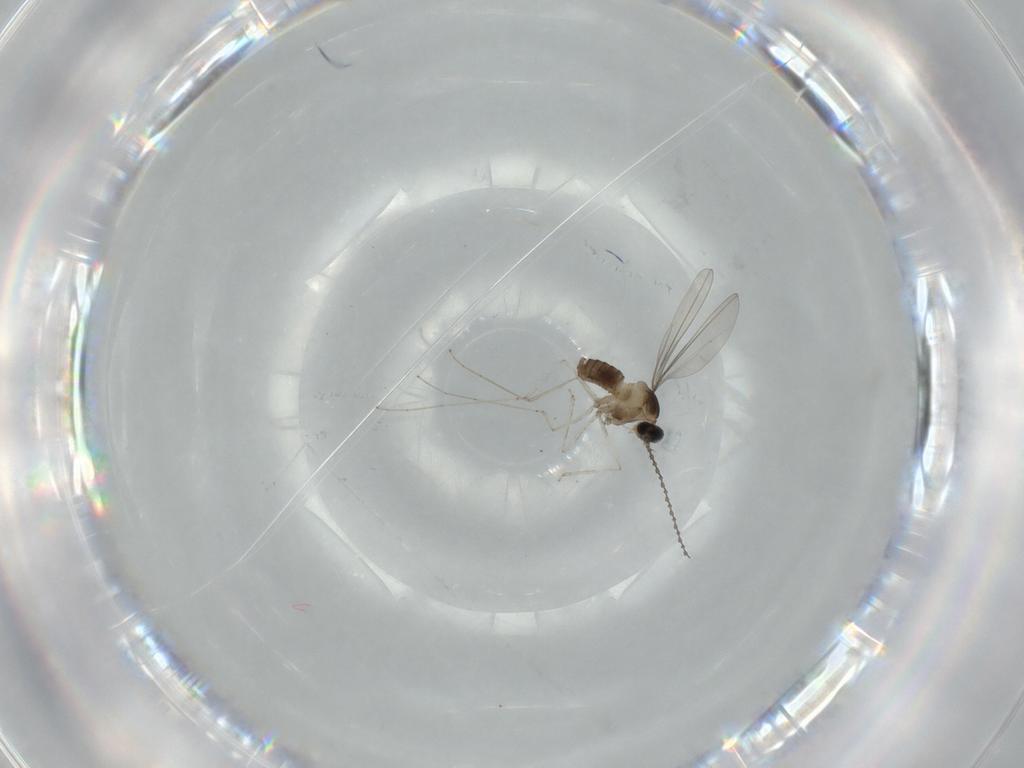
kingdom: Animalia
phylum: Arthropoda
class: Insecta
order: Diptera
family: Cecidomyiidae
